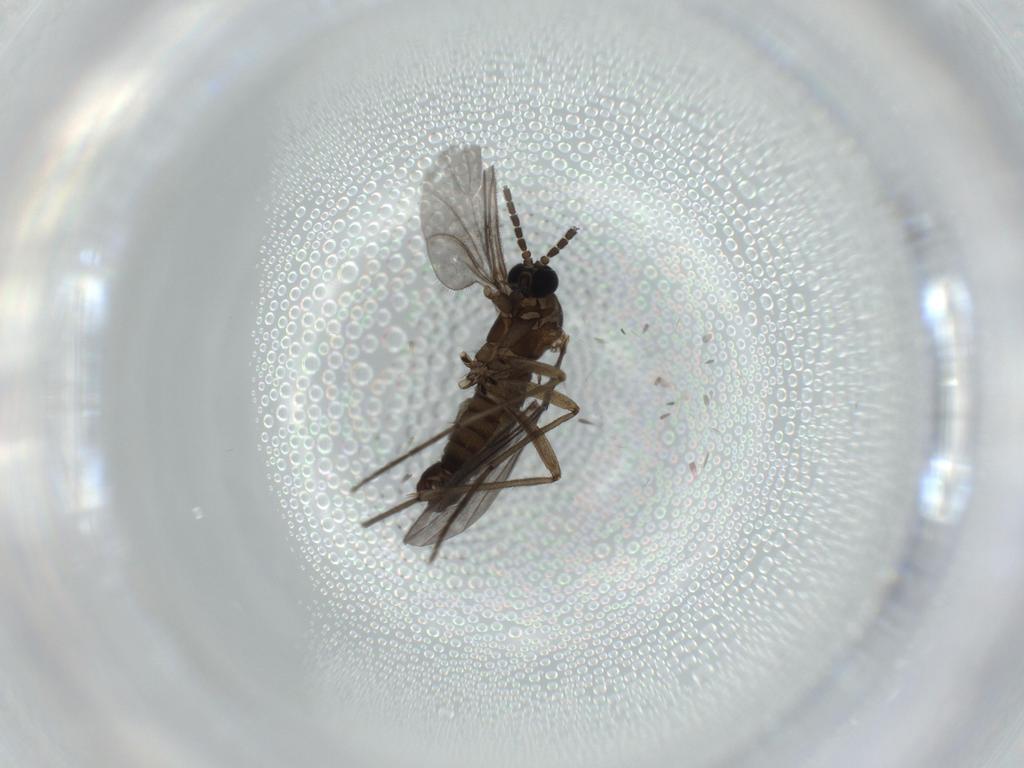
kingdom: Animalia
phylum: Arthropoda
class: Insecta
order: Diptera
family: Sciaridae
